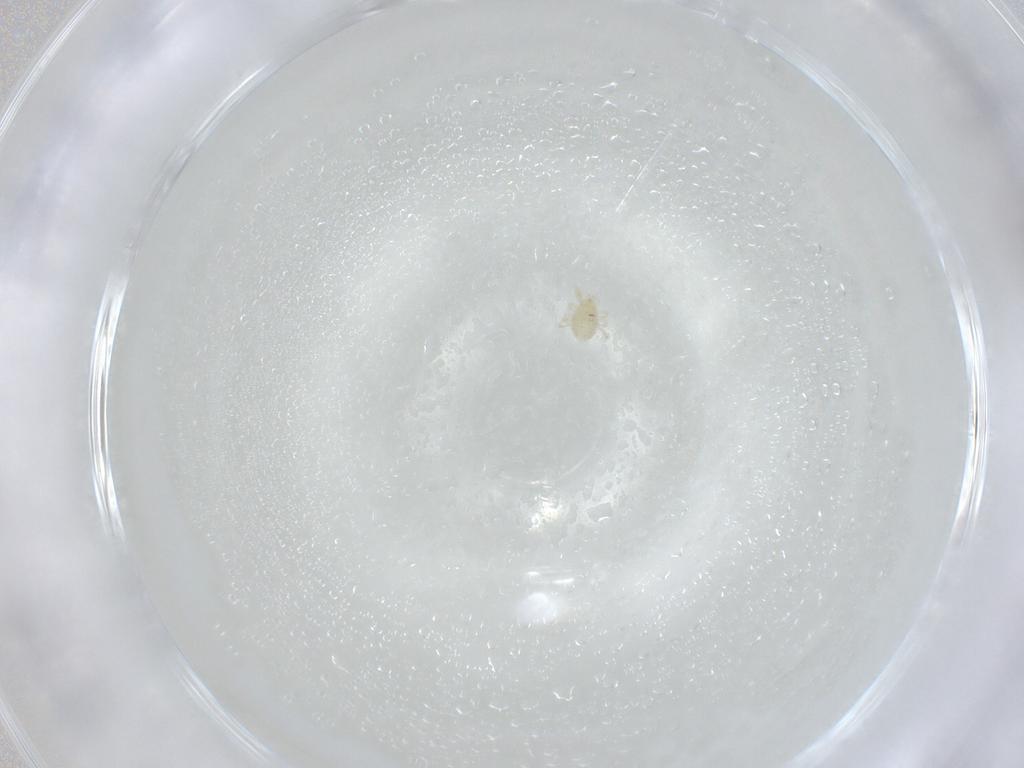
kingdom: Animalia
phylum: Arthropoda
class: Arachnida
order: Mesostigmata
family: Phytoseiidae
